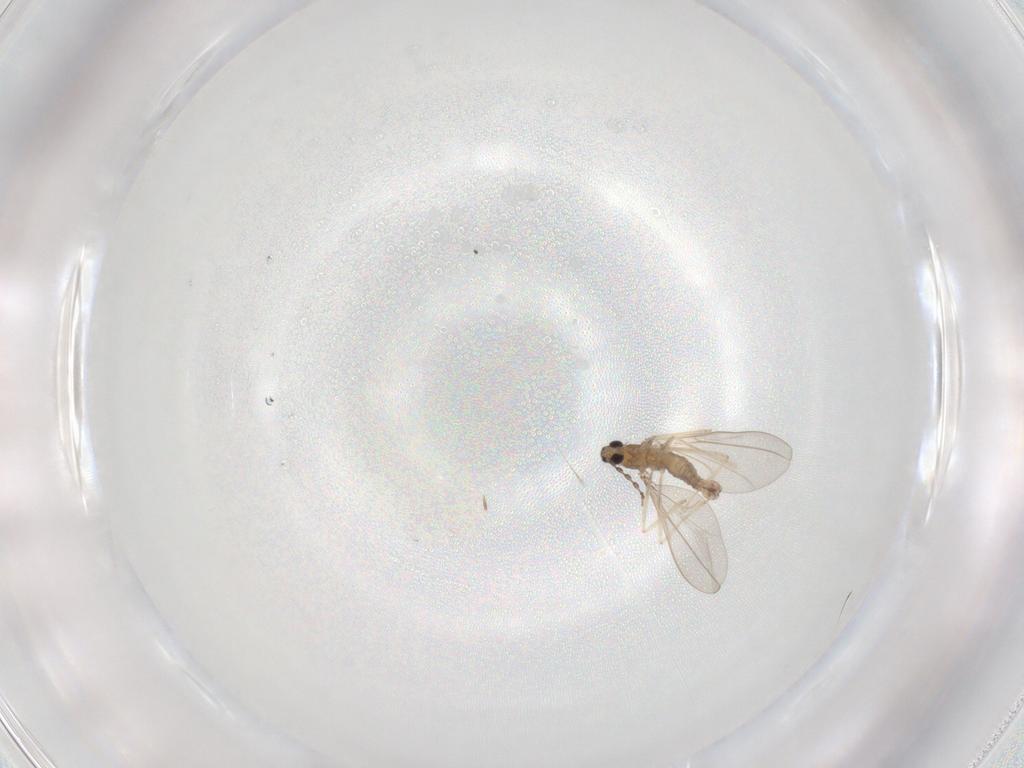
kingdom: Animalia
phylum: Arthropoda
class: Insecta
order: Diptera
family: Cecidomyiidae
